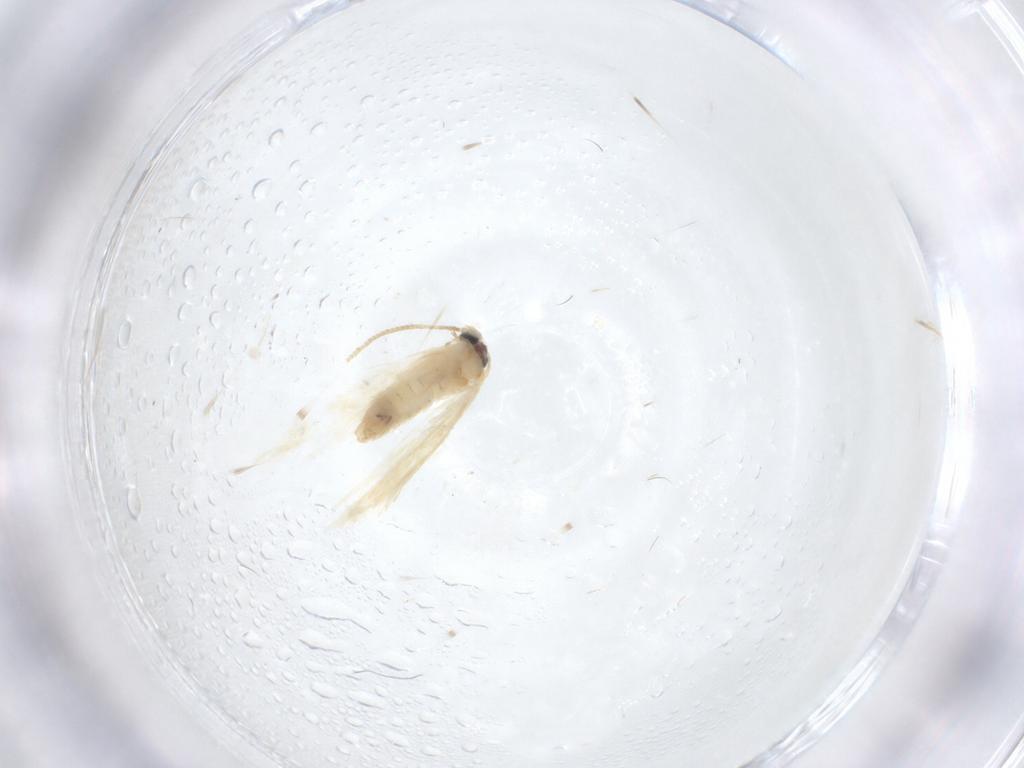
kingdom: Animalia
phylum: Arthropoda
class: Insecta
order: Lepidoptera
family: Nepticulidae
